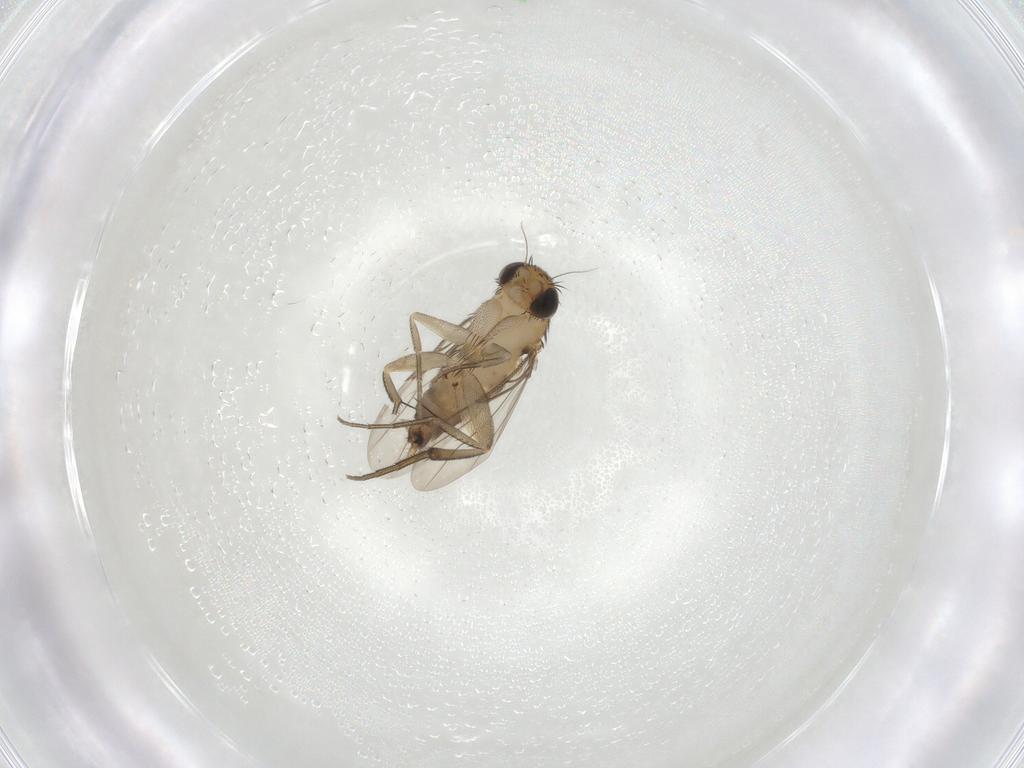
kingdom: Animalia
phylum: Arthropoda
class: Insecta
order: Diptera
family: Phoridae
